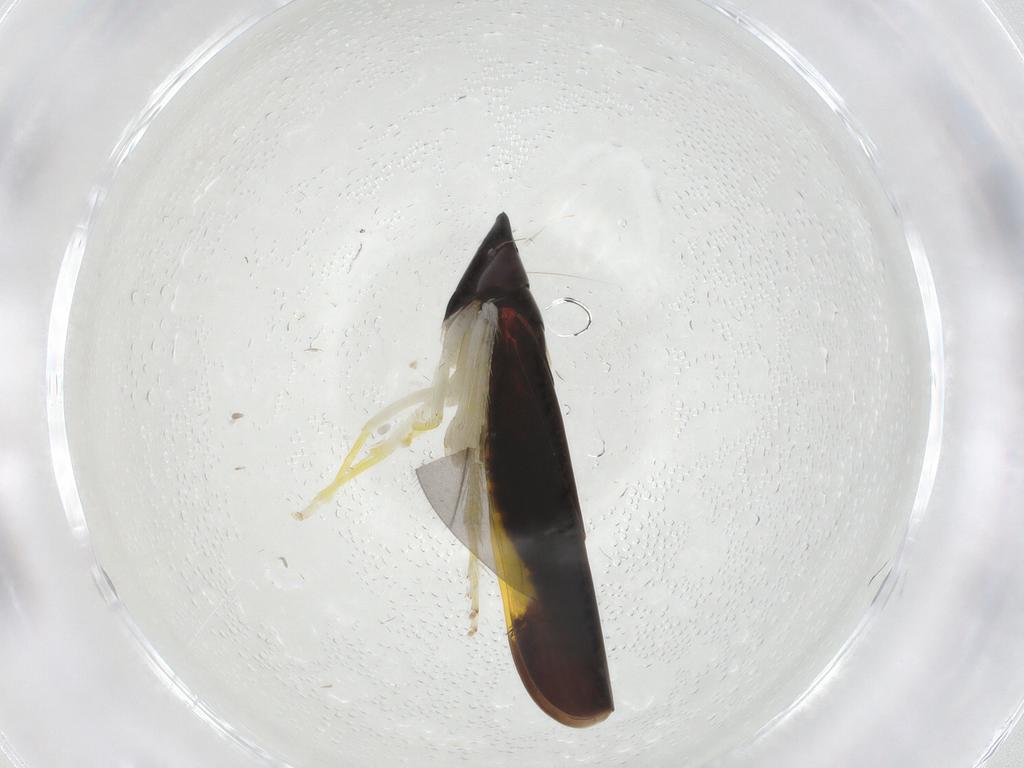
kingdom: Animalia
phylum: Arthropoda
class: Insecta
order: Hemiptera
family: Cicadellidae
